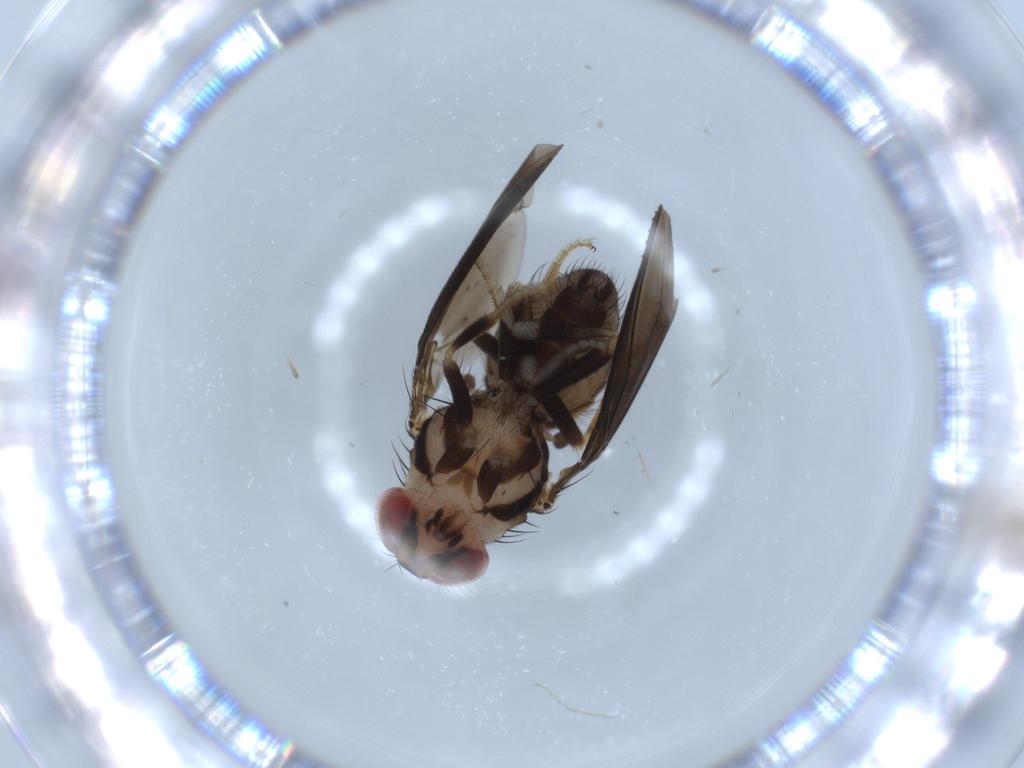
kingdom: Animalia
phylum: Arthropoda
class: Insecta
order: Diptera
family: Drosophilidae
